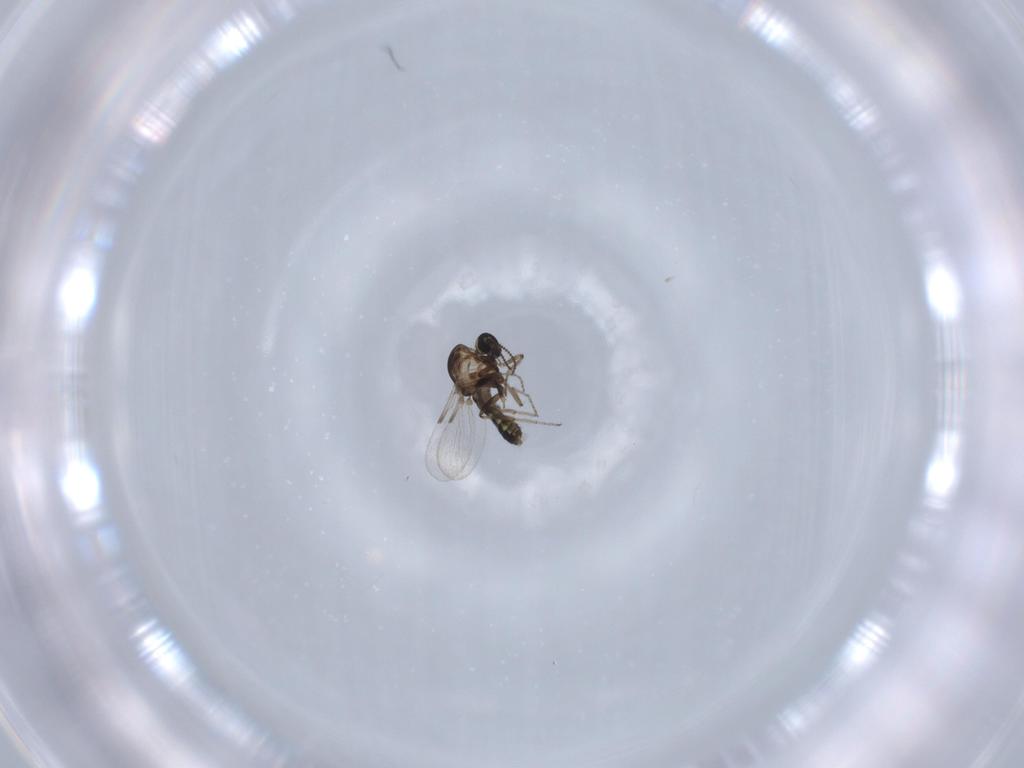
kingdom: Animalia
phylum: Arthropoda
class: Insecta
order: Diptera
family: Ceratopogonidae
